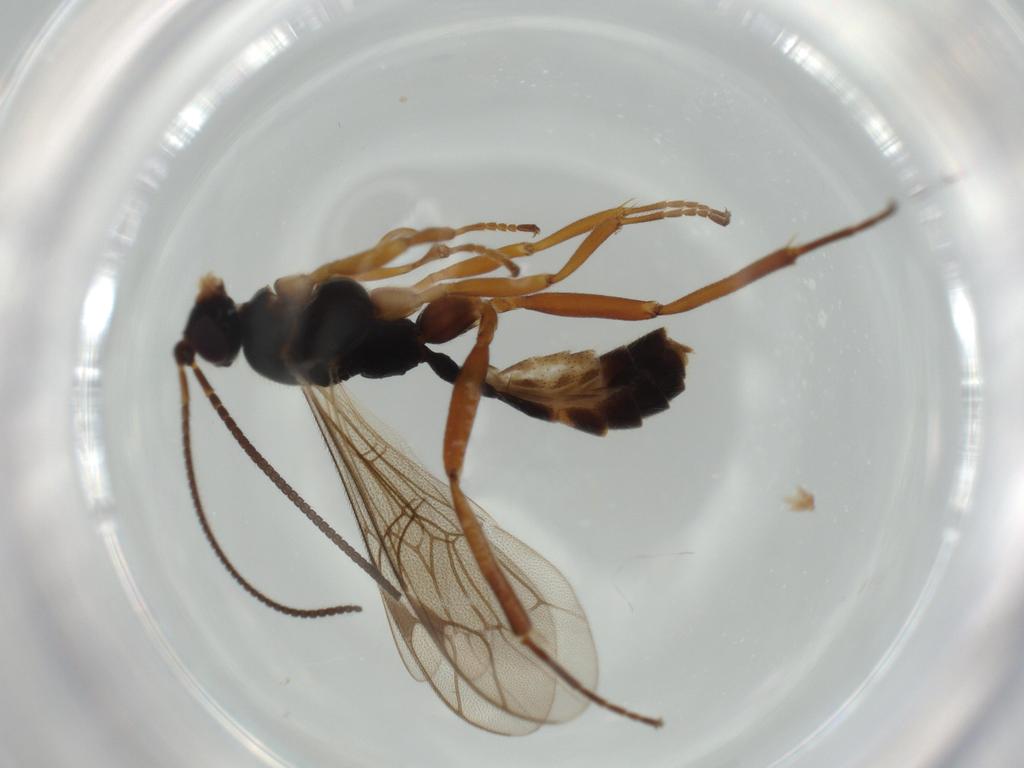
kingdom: Animalia
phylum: Arthropoda
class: Insecta
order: Hymenoptera
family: Ichneumonidae
